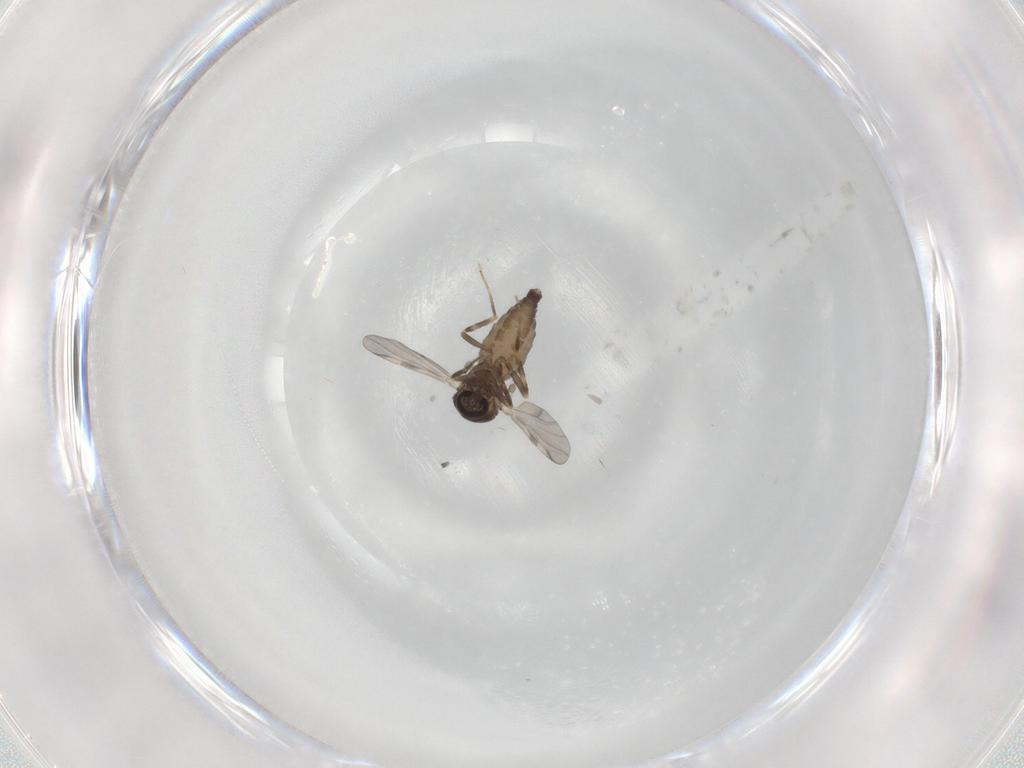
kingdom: Animalia
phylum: Arthropoda
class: Insecta
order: Diptera
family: Ceratopogonidae
